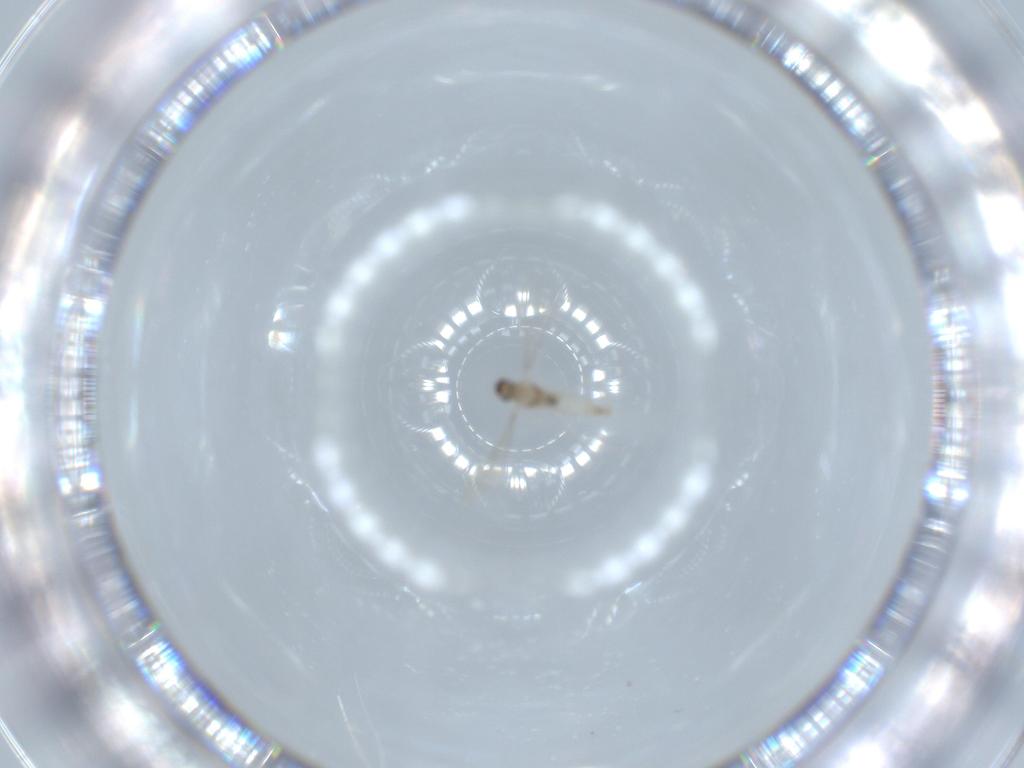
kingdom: Animalia
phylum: Arthropoda
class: Insecta
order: Diptera
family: Cecidomyiidae
